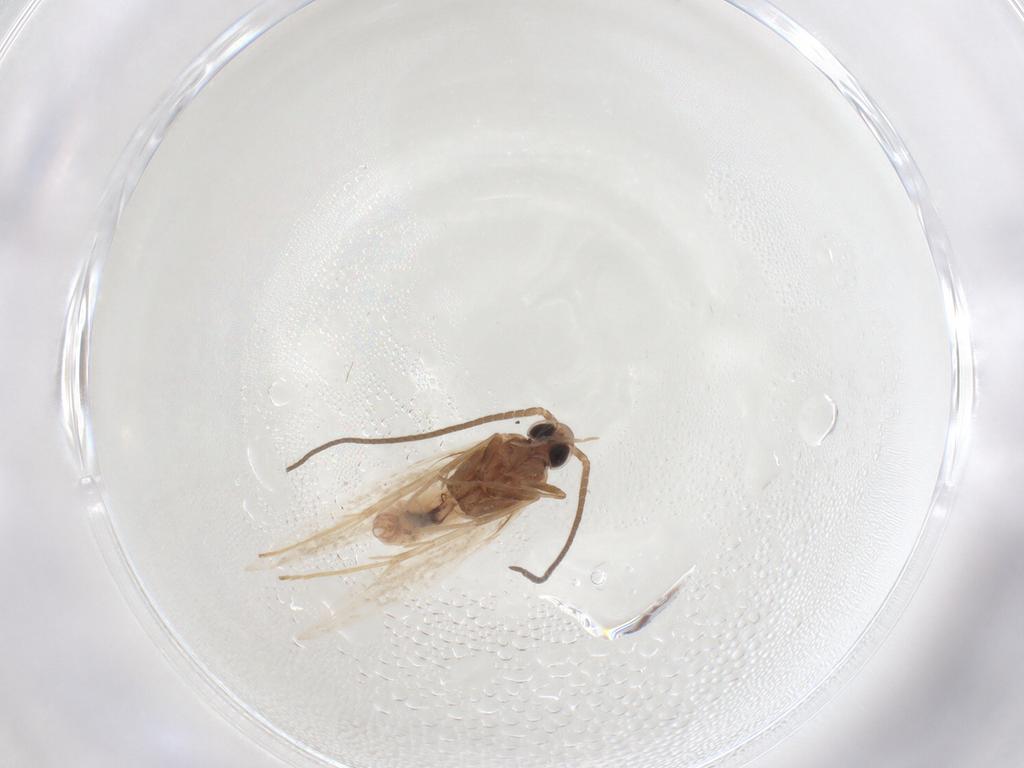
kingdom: Animalia
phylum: Arthropoda
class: Insecta
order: Lepidoptera
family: Coleophoridae
